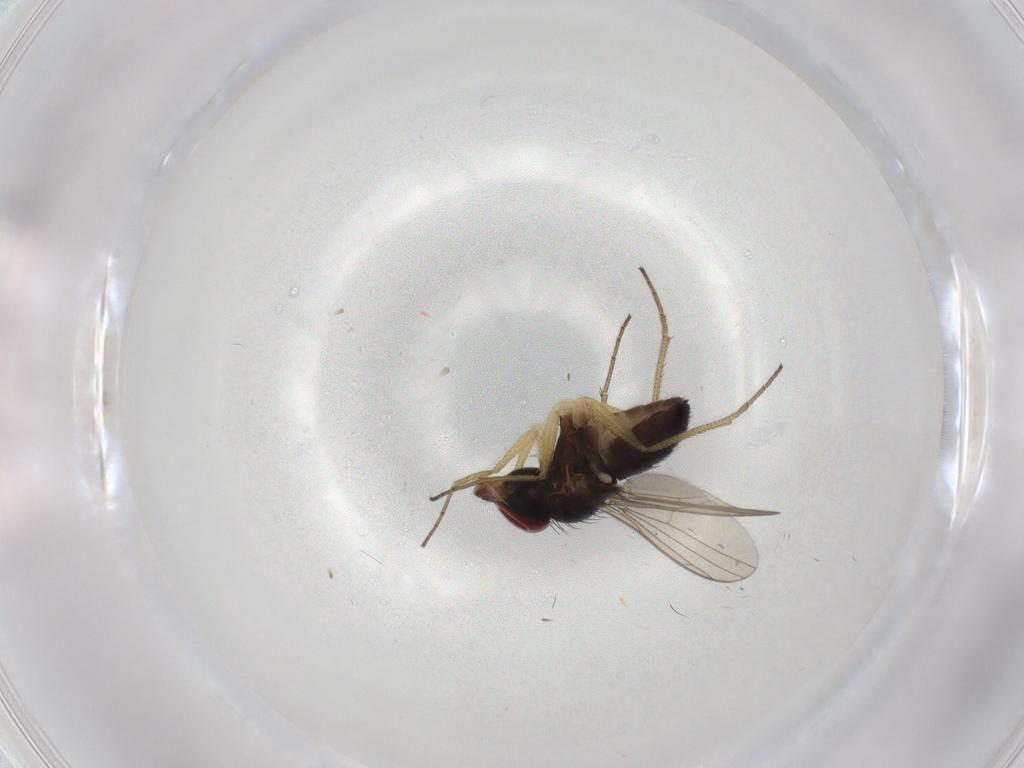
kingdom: Animalia
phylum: Arthropoda
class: Insecta
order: Diptera
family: Dolichopodidae
